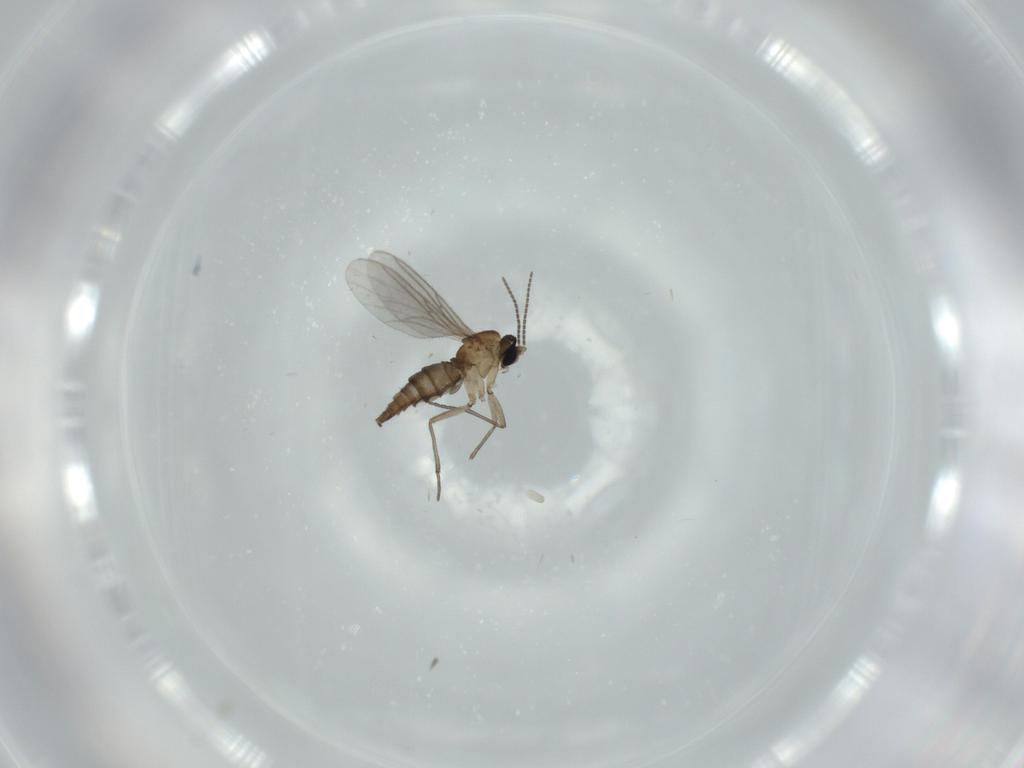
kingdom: Animalia
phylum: Arthropoda
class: Insecta
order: Diptera
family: Sciaridae
